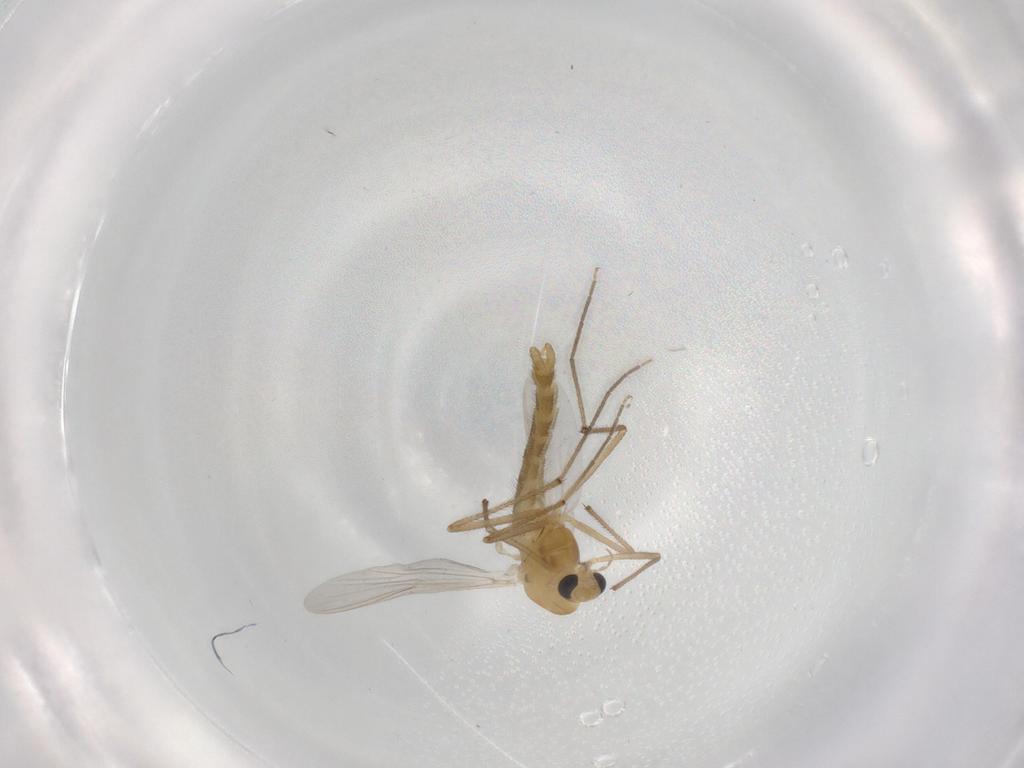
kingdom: Animalia
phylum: Arthropoda
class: Insecta
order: Diptera
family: Chironomidae
